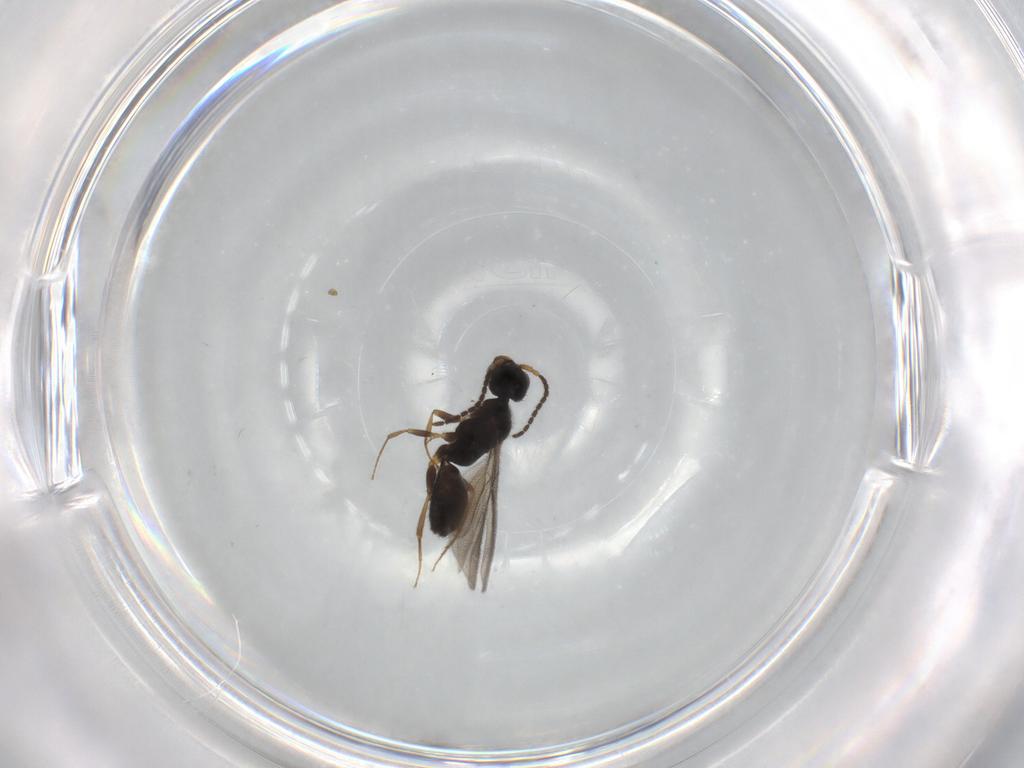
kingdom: Animalia
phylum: Arthropoda
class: Insecta
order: Hymenoptera
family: Bethylidae
